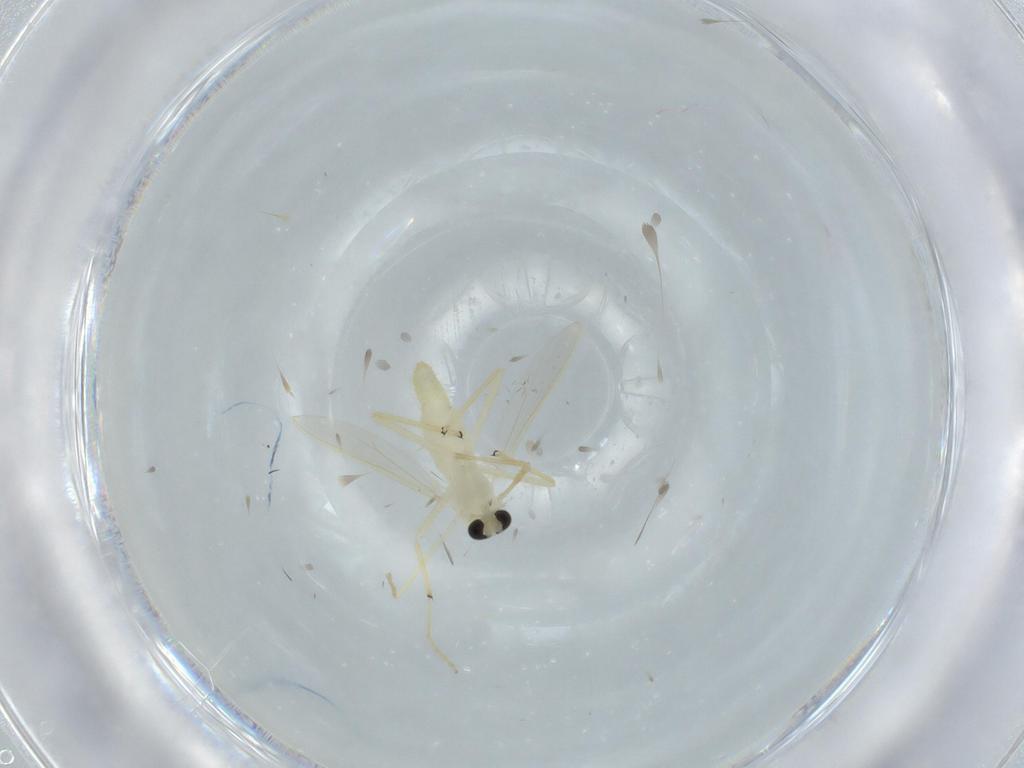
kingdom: Animalia
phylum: Arthropoda
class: Insecta
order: Diptera
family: Chironomidae
